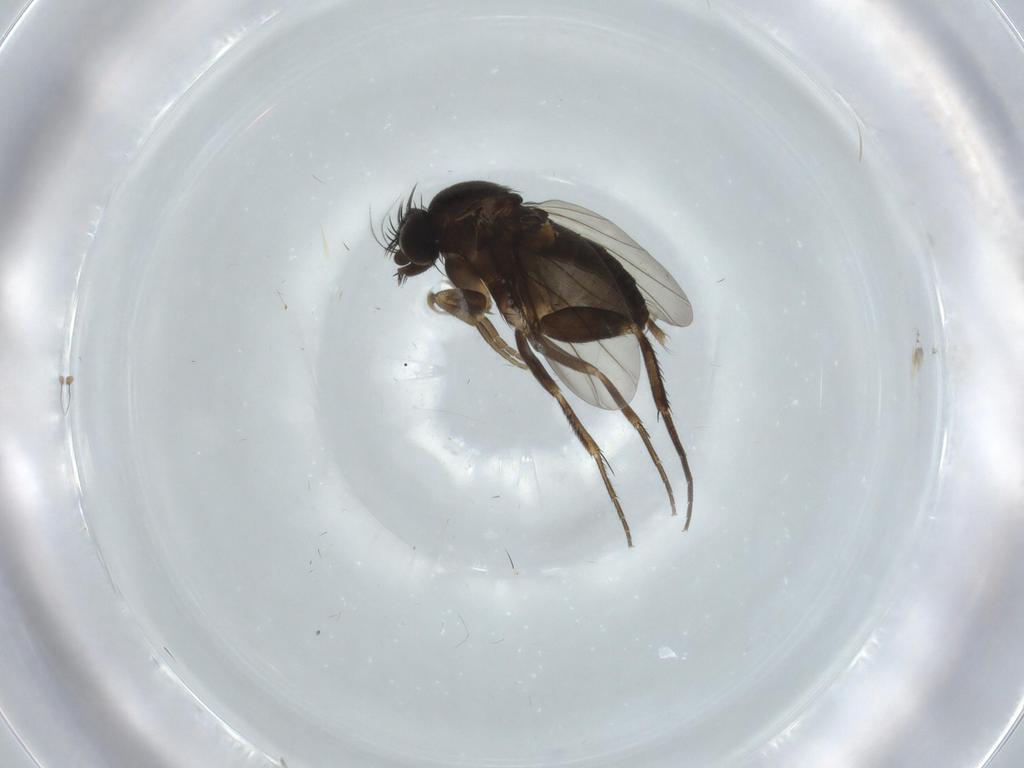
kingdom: Animalia
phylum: Arthropoda
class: Insecta
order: Diptera
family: Phoridae
